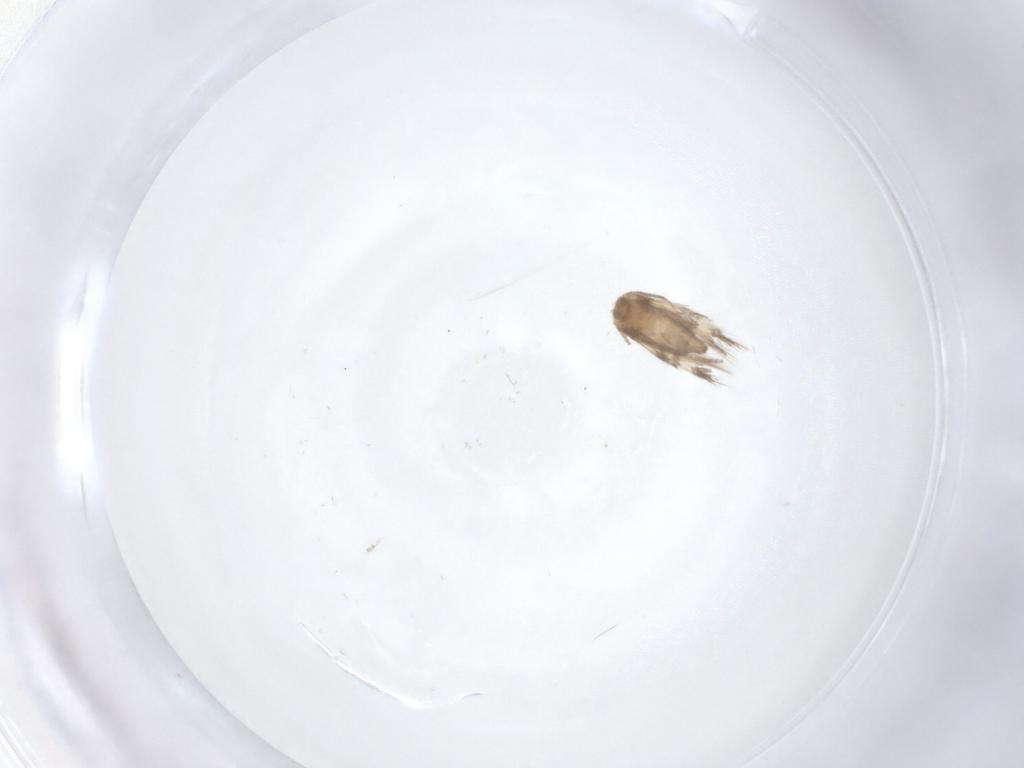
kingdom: Animalia
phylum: Arthropoda
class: Insecta
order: Lepidoptera
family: Nepticulidae
